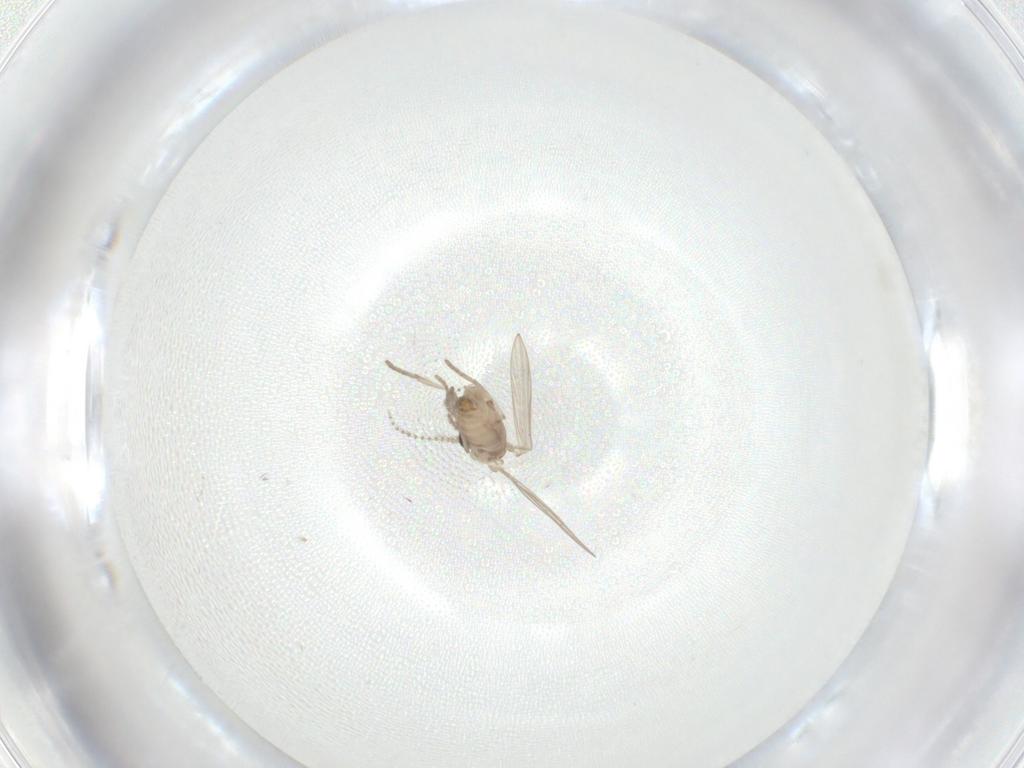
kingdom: Animalia
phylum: Arthropoda
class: Insecta
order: Diptera
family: Psychodidae
